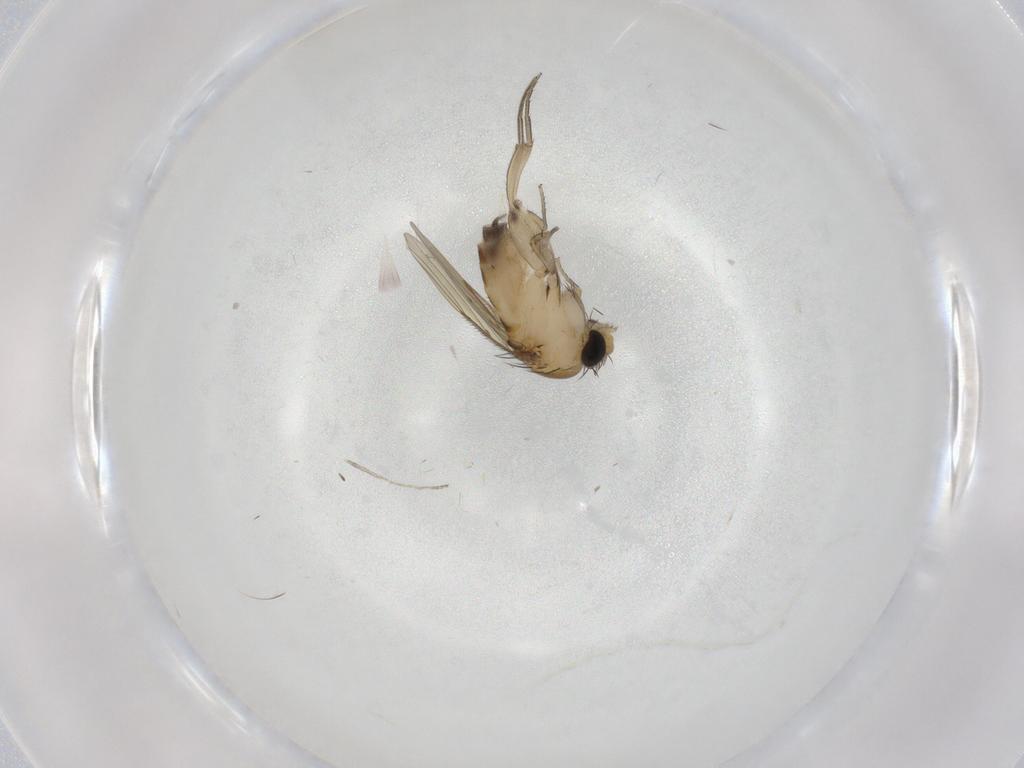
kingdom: Animalia
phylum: Arthropoda
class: Insecta
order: Diptera
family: Phoridae
